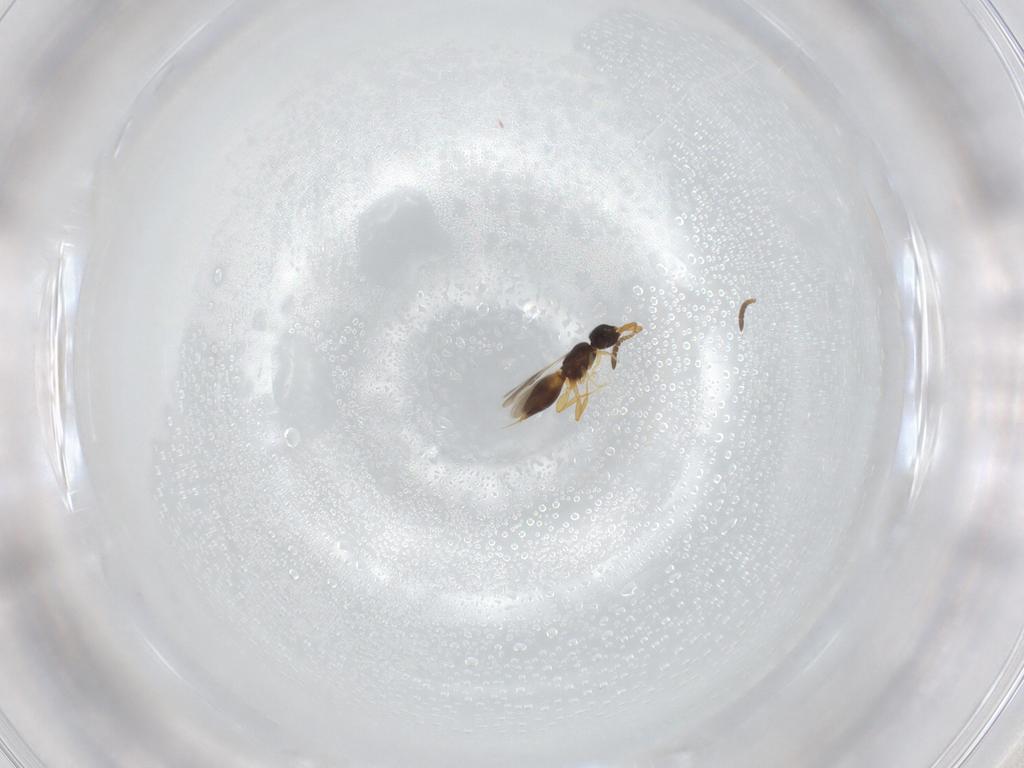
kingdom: Animalia
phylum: Arthropoda
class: Insecta
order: Hymenoptera
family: Ceraphronidae
